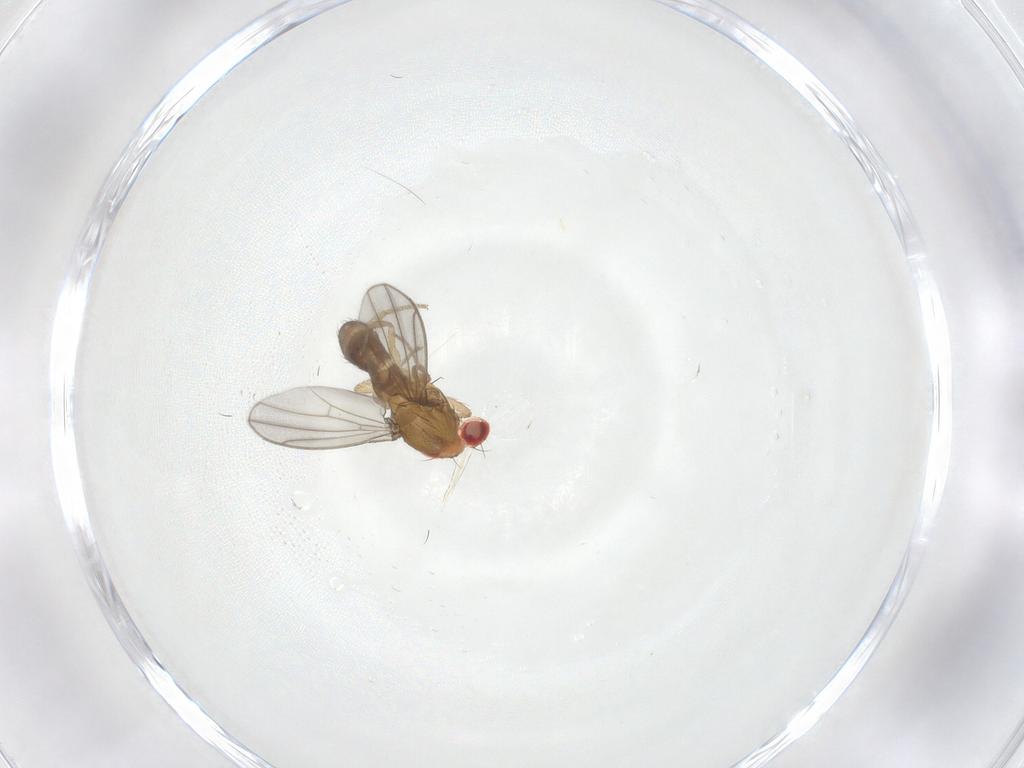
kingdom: Animalia
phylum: Arthropoda
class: Insecta
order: Diptera
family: Drosophilidae
